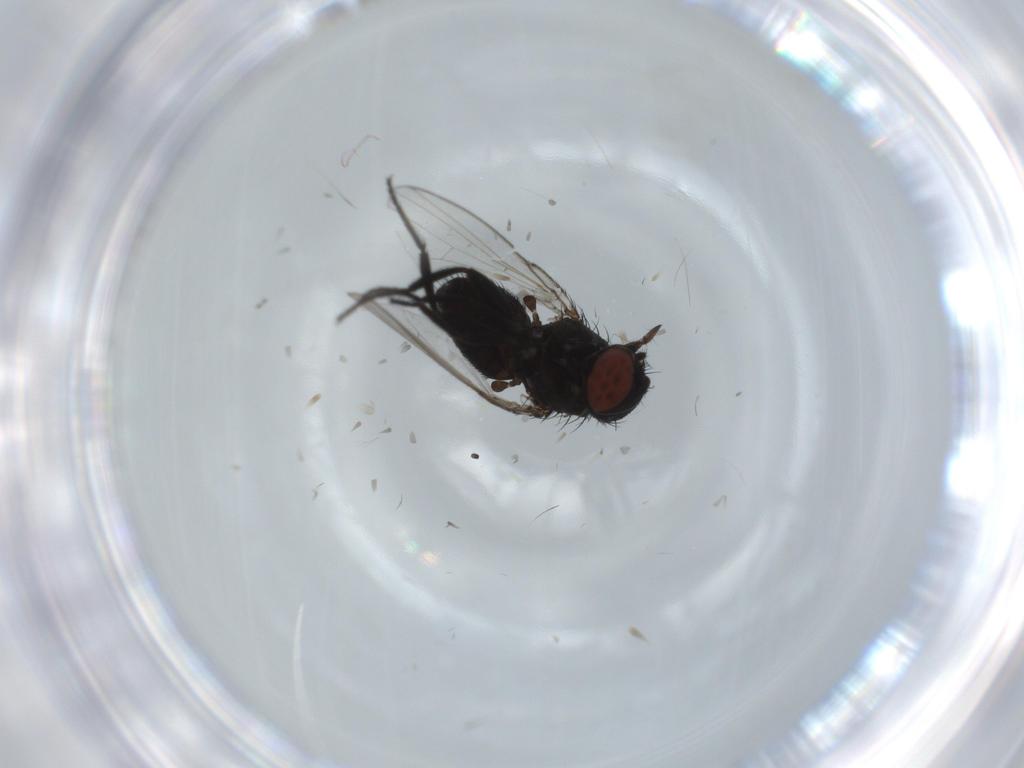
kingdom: Animalia
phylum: Arthropoda
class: Insecta
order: Diptera
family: Milichiidae
